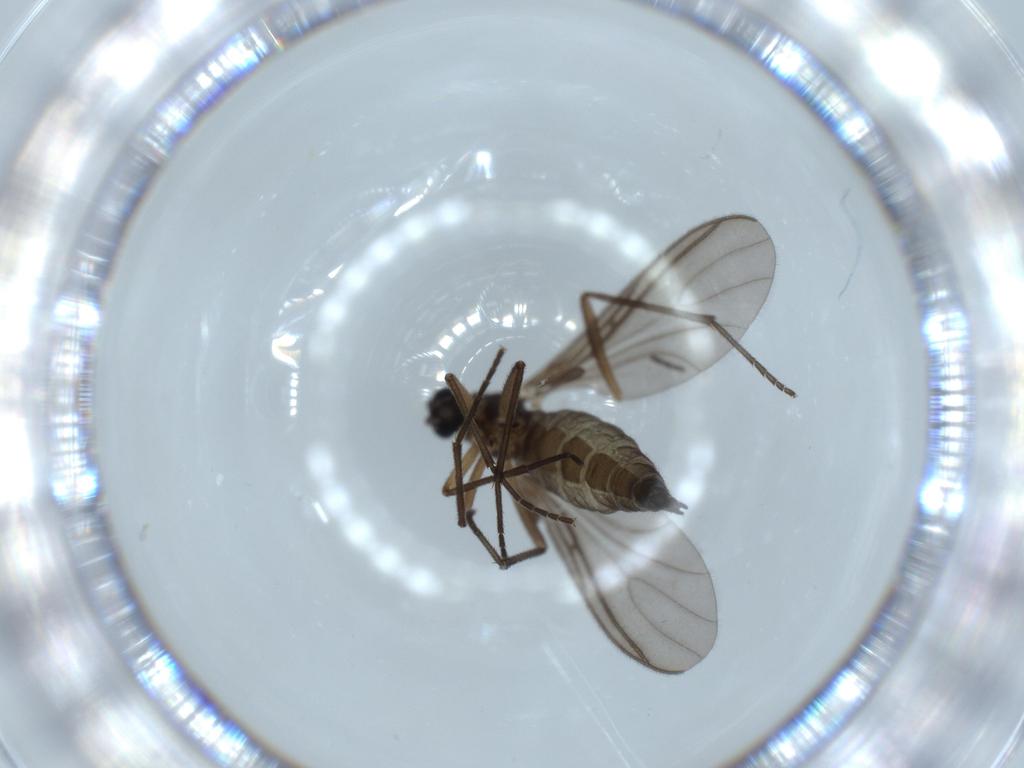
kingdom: Animalia
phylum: Arthropoda
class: Insecta
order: Diptera
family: Sciaridae
